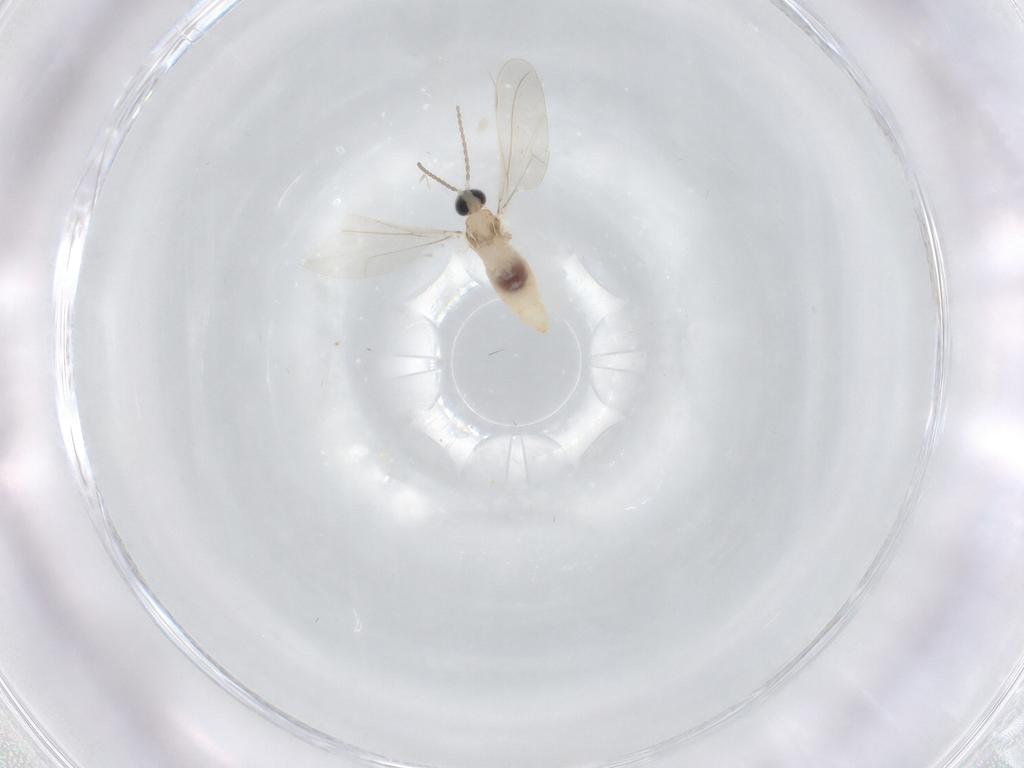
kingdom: Animalia
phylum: Arthropoda
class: Insecta
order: Diptera
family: Cecidomyiidae
